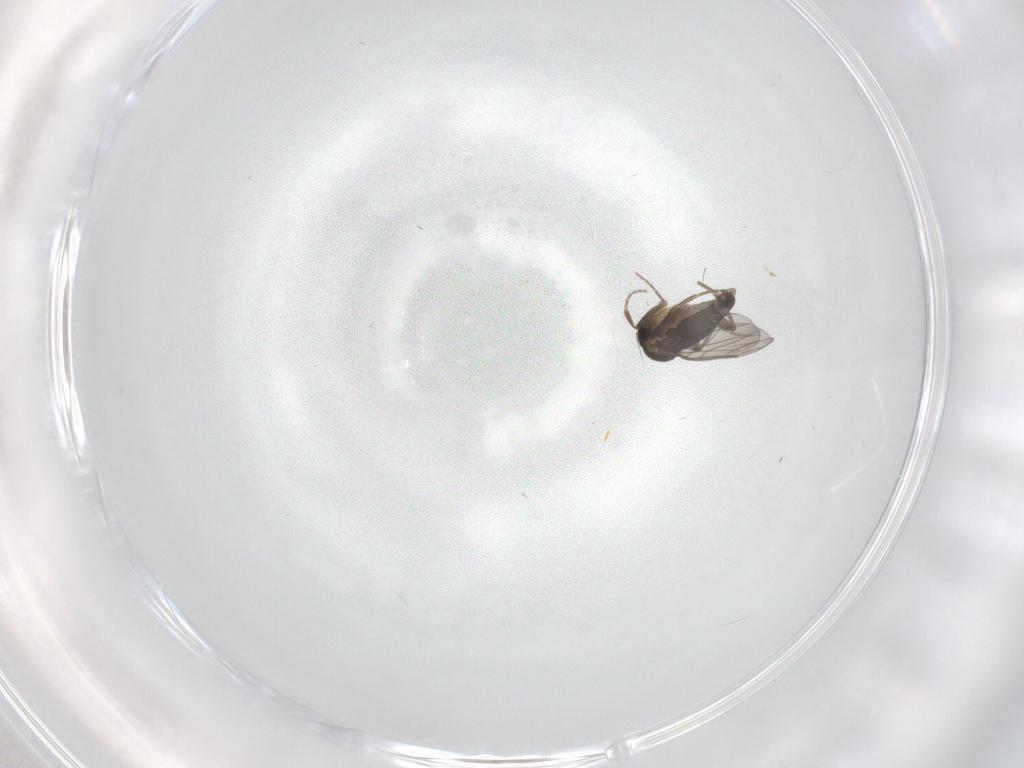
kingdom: Animalia
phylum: Arthropoda
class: Insecta
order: Diptera
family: Phoridae
